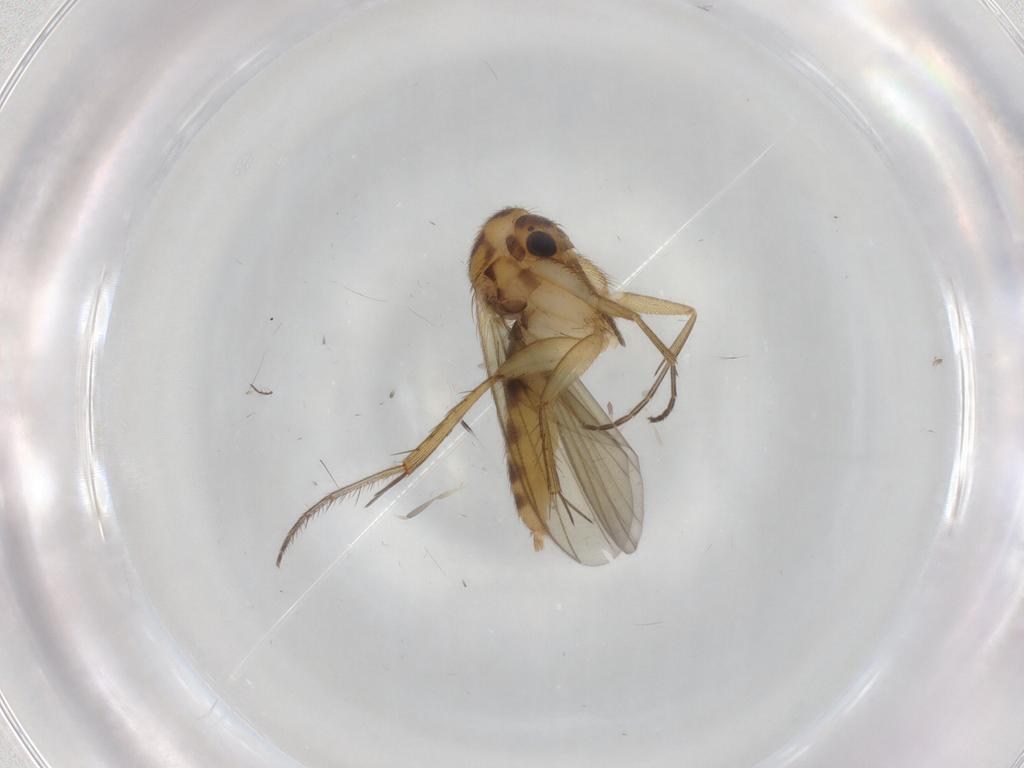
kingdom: Animalia
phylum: Arthropoda
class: Insecta
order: Diptera
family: Mycetophilidae
